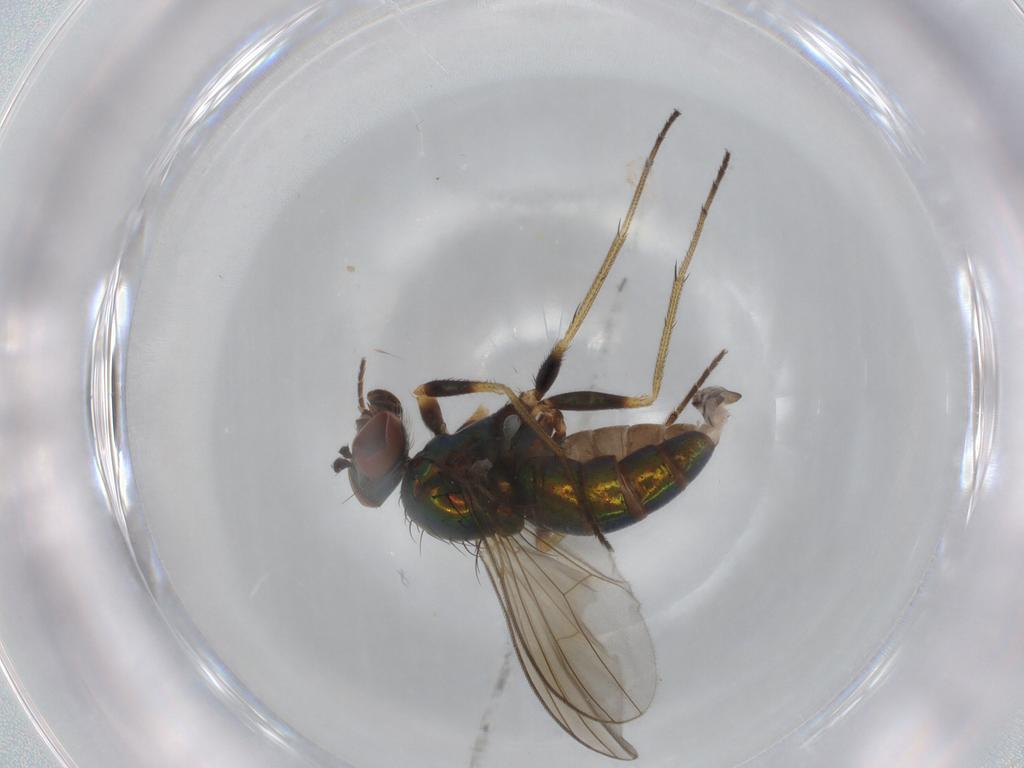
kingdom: Animalia
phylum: Arthropoda
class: Insecta
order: Diptera
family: Dolichopodidae
